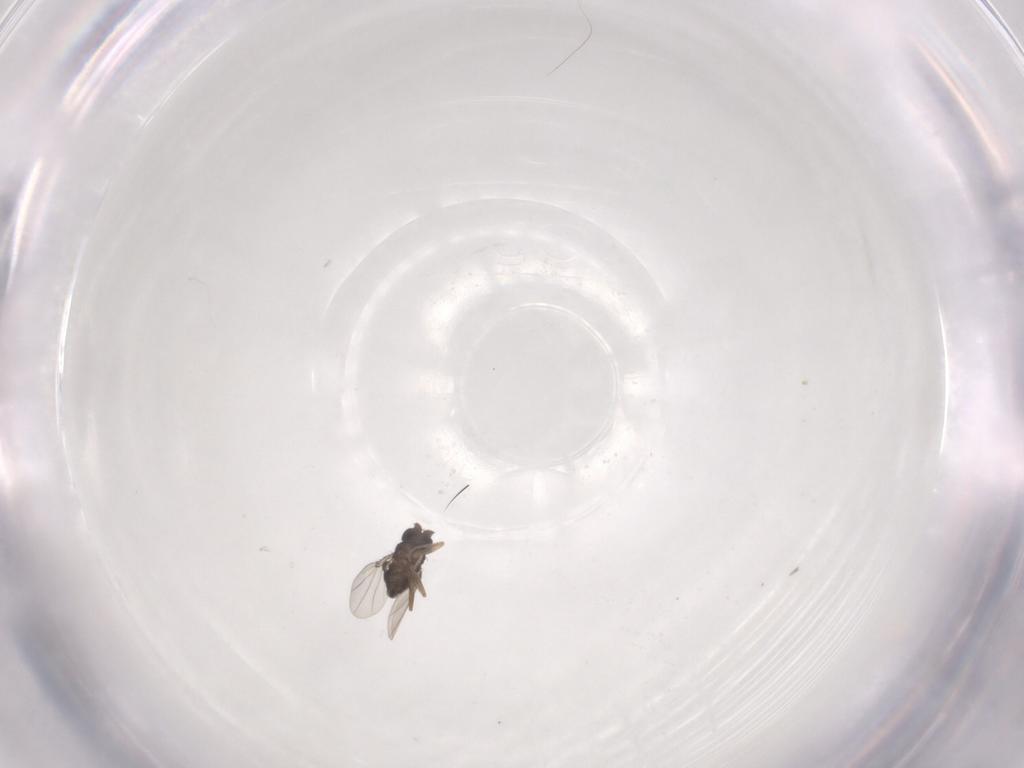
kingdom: Animalia
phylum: Arthropoda
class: Insecta
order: Diptera
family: Phoridae
